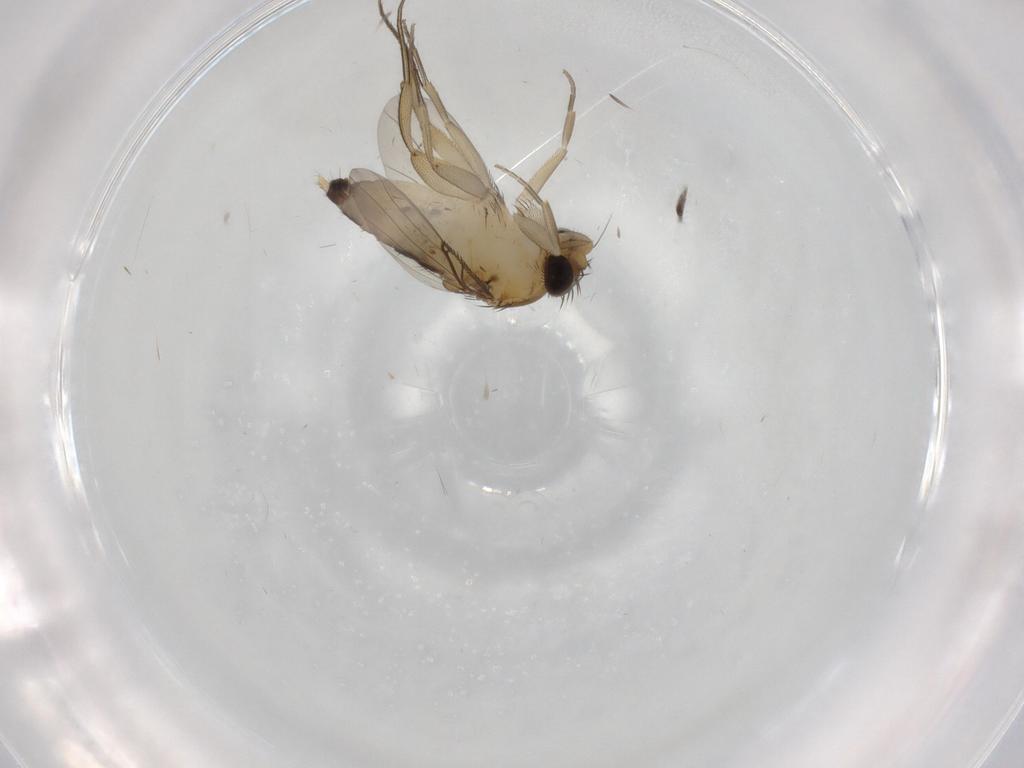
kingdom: Animalia
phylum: Arthropoda
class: Insecta
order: Diptera
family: Phoridae
